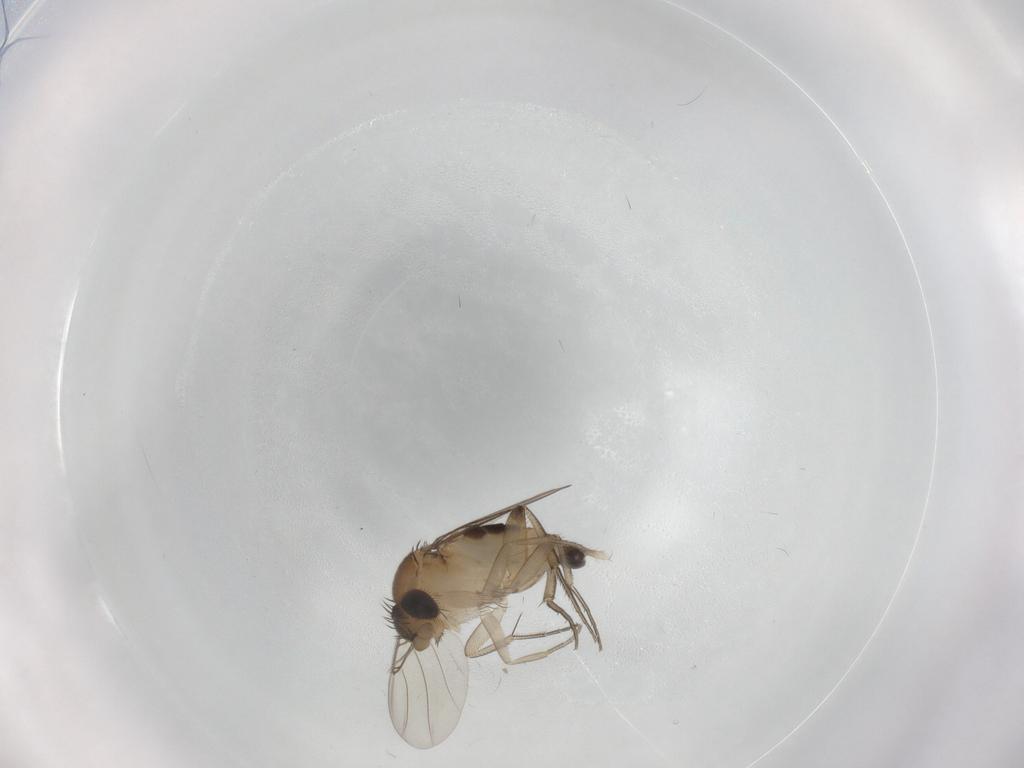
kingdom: Animalia
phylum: Arthropoda
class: Insecta
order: Diptera
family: Phoridae
